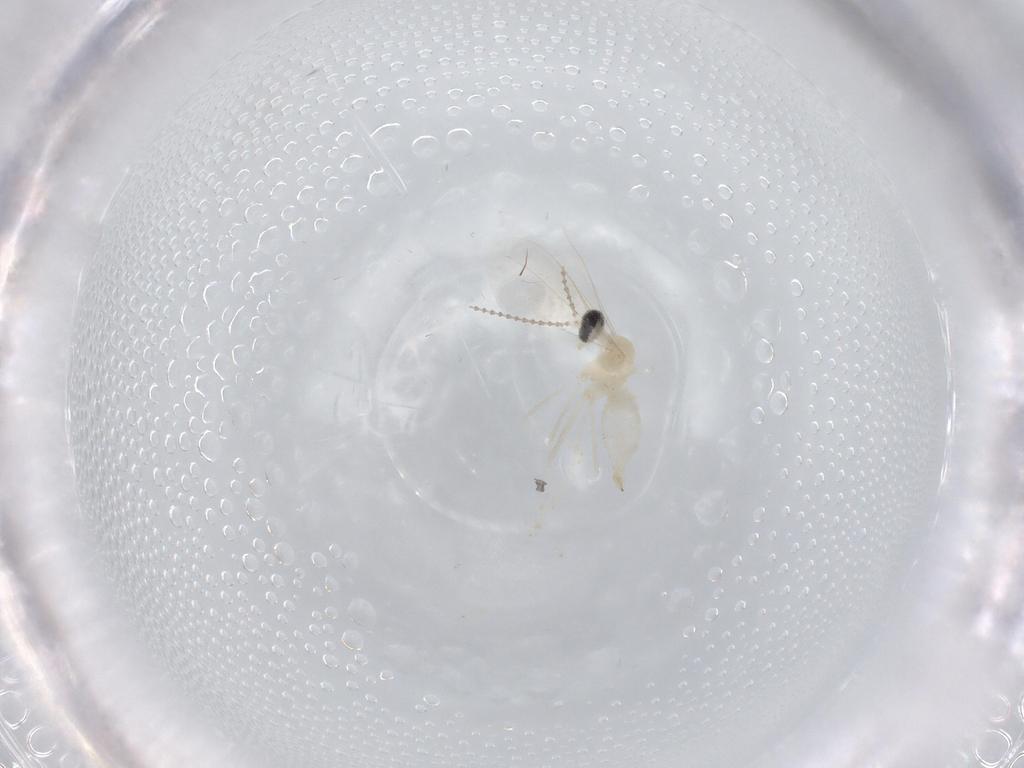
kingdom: Animalia
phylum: Arthropoda
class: Insecta
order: Diptera
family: Cecidomyiidae
